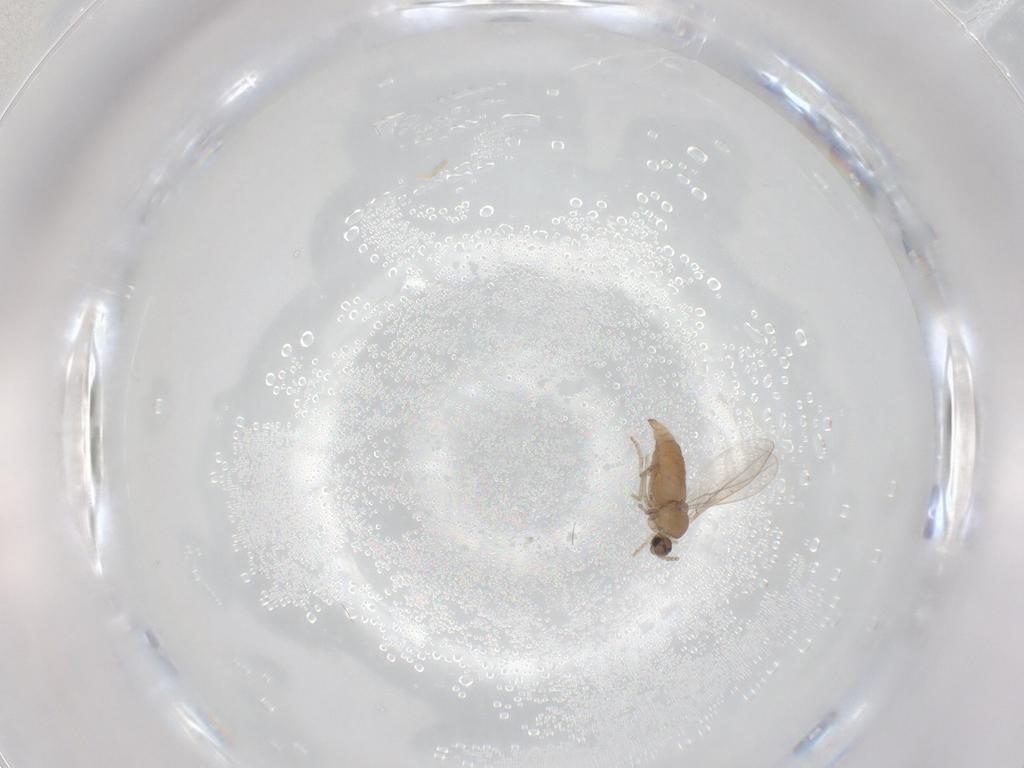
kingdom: Animalia
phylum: Arthropoda
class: Insecta
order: Diptera
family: Cecidomyiidae
